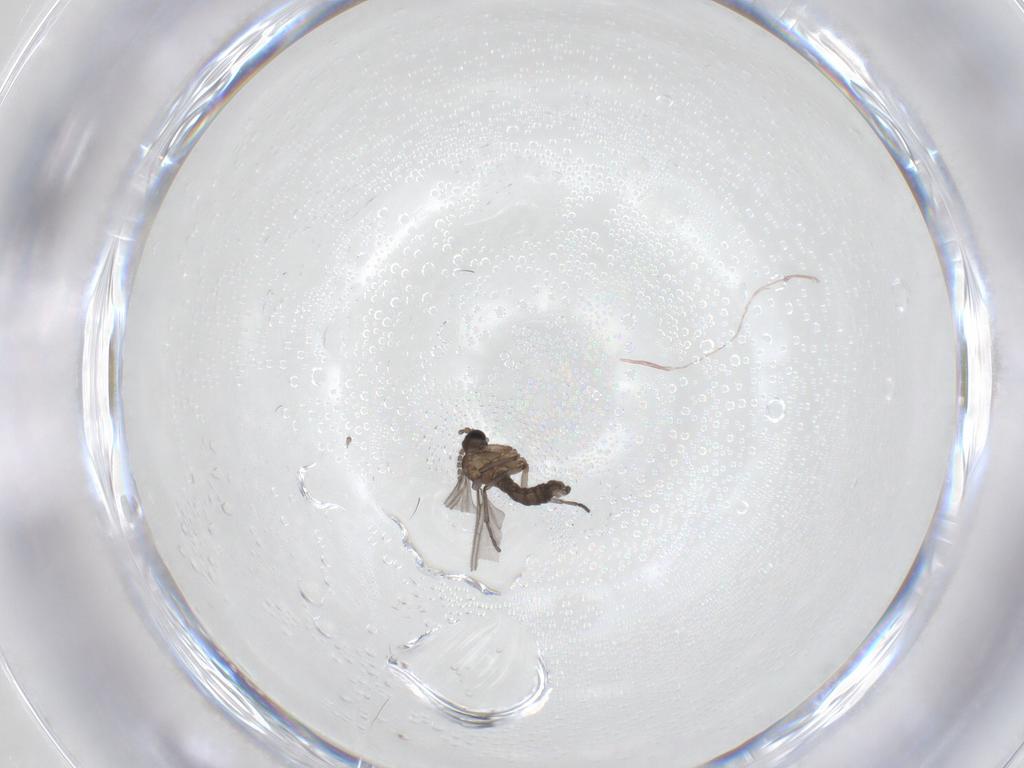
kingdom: Animalia
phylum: Arthropoda
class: Insecta
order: Diptera
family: Sciaridae
